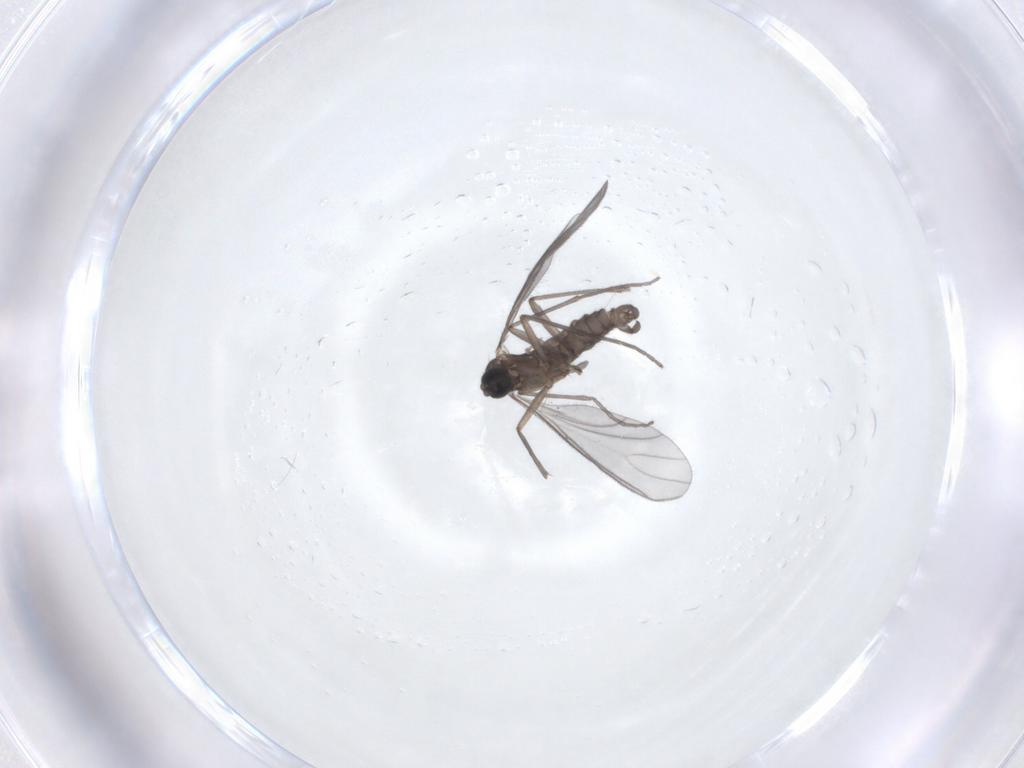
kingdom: Animalia
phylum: Arthropoda
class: Insecta
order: Diptera
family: Sciaridae
